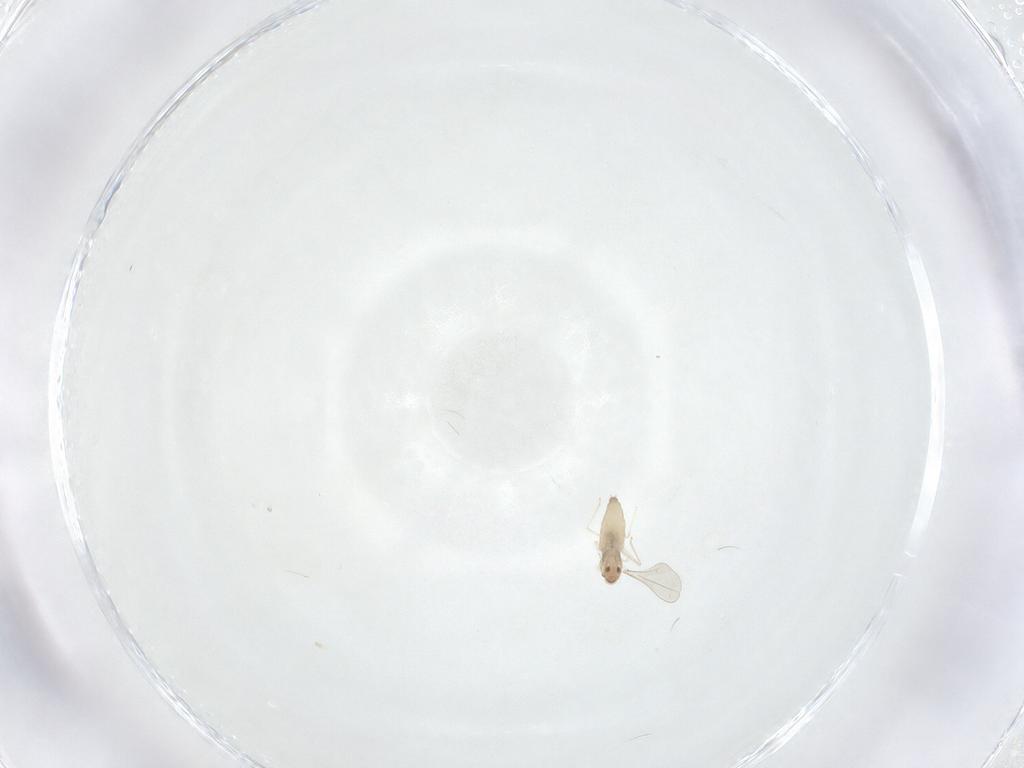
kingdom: Animalia
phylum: Arthropoda
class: Insecta
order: Diptera
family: Cecidomyiidae
